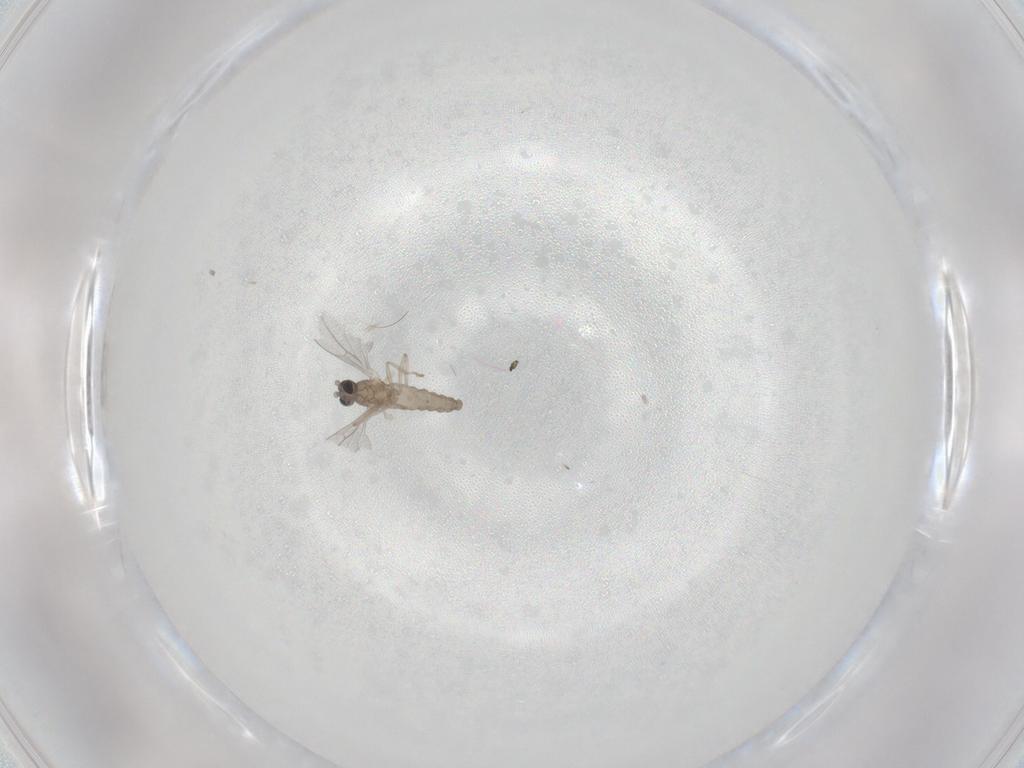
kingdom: Animalia
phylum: Arthropoda
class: Insecta
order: Diptera
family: Cecidomyiidae
